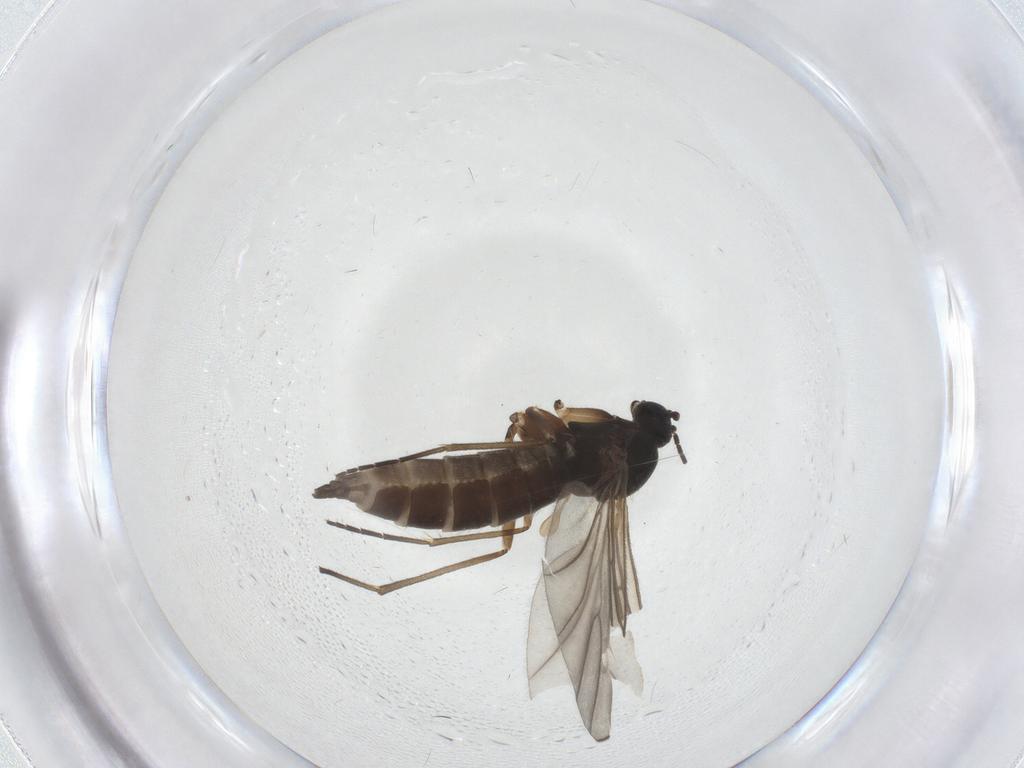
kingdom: Animalia
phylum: Arthropoda
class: Insecta
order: Diptera
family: Sciaridae
